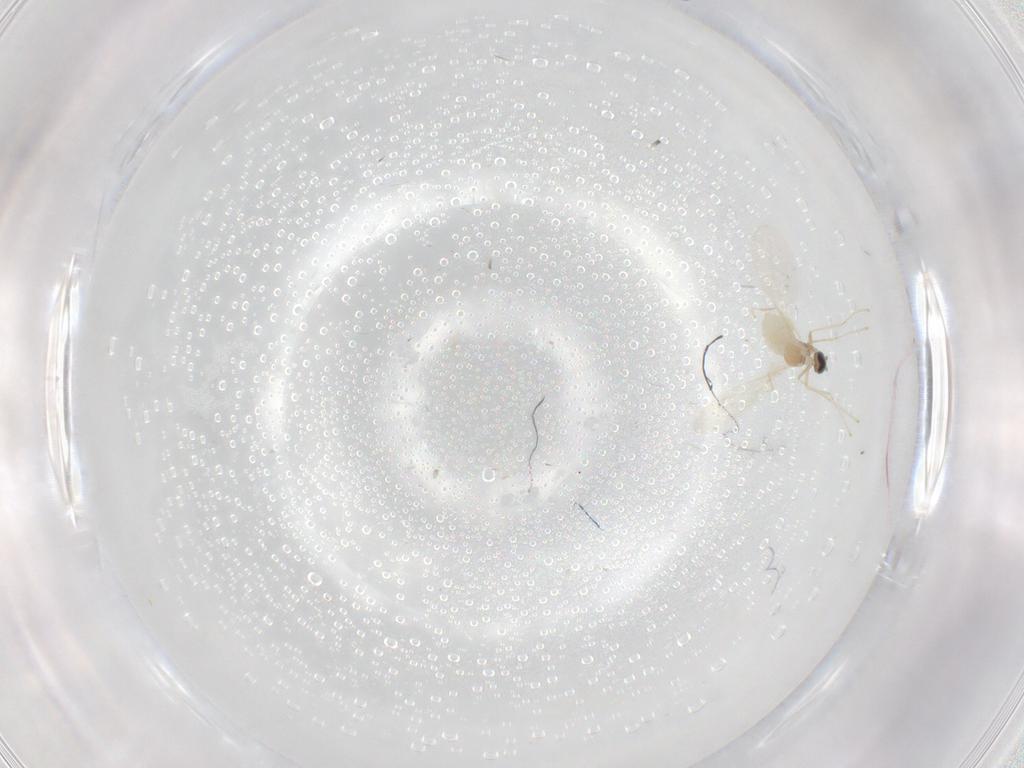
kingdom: Animalia
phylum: Arthropoda
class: Insecta
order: Diptera
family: Cecidomyiidae
